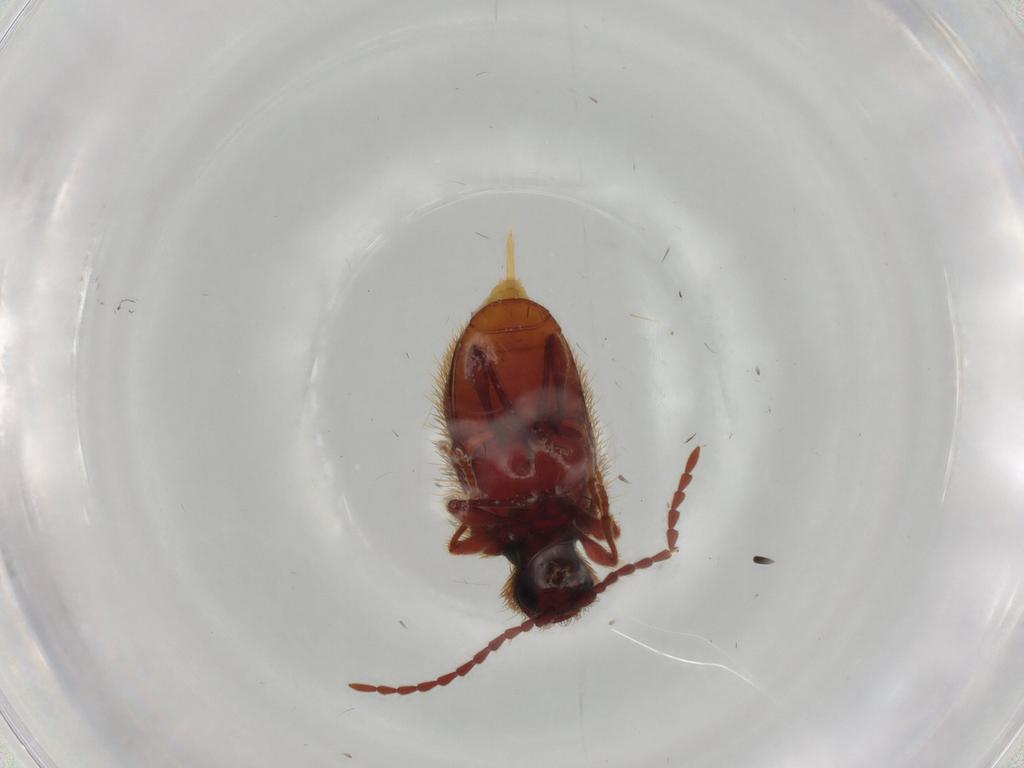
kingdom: Animalia
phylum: Arthropoda
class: Insecta
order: Coleoptera
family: Ptinidae
